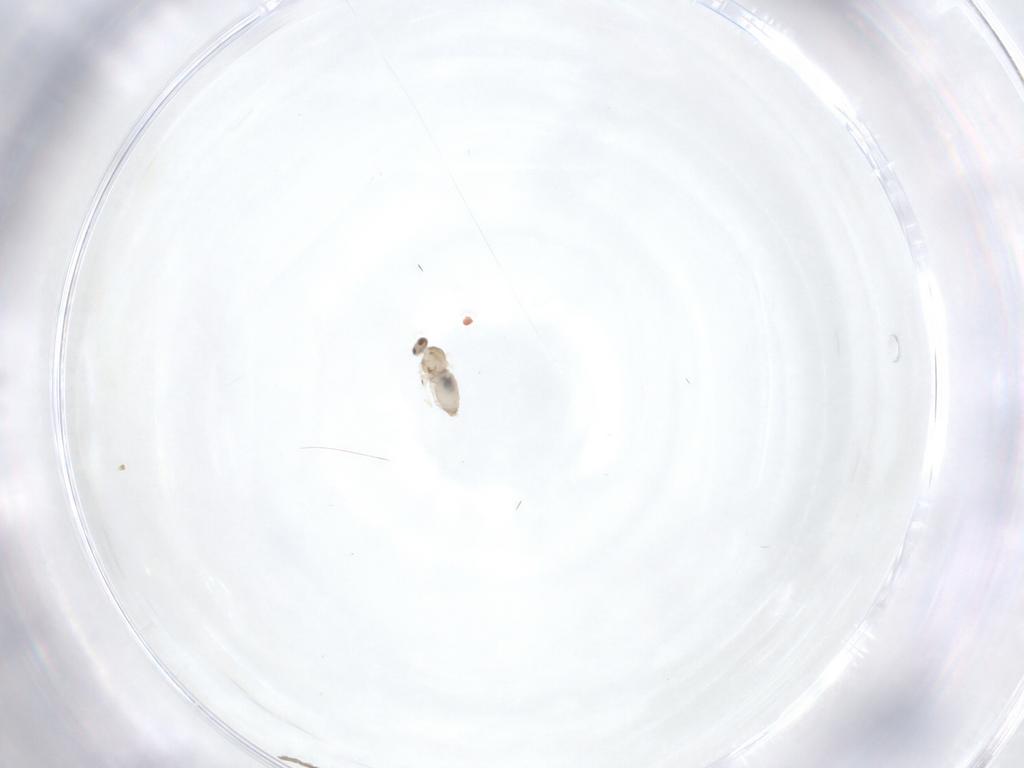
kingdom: Animalia
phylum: Arthropoda
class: Insecta
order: Diptera
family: Cecidomyiidae
